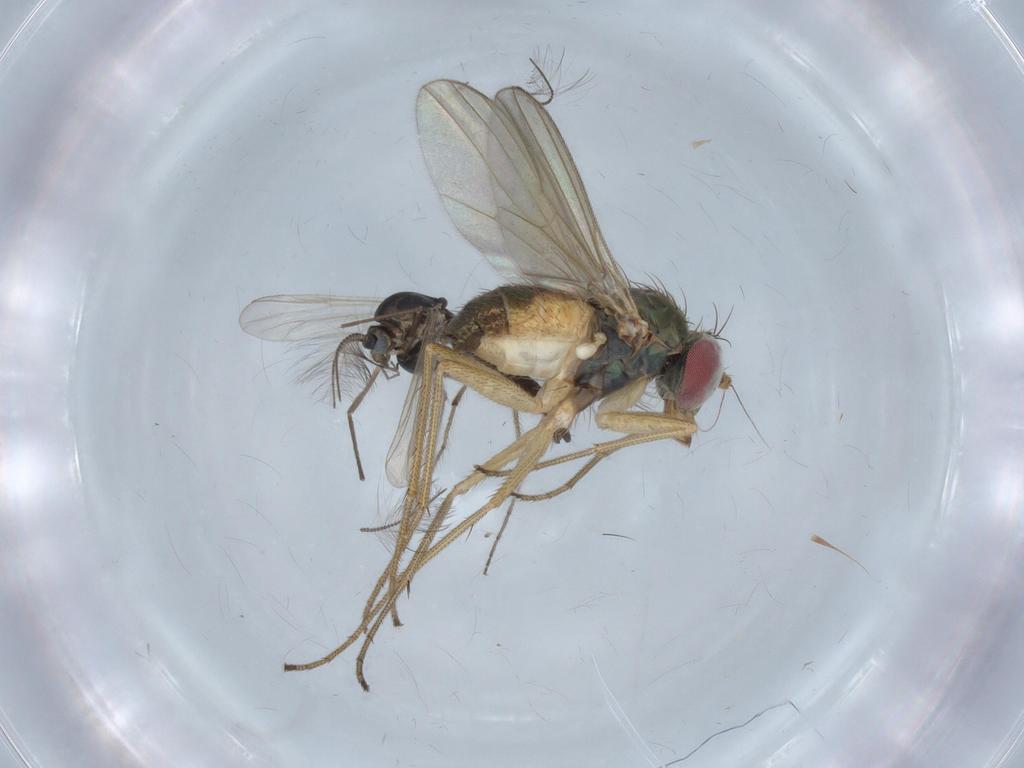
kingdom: Animalia
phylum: Arthropoda
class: Insecta
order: Diptera
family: Chironomidae
